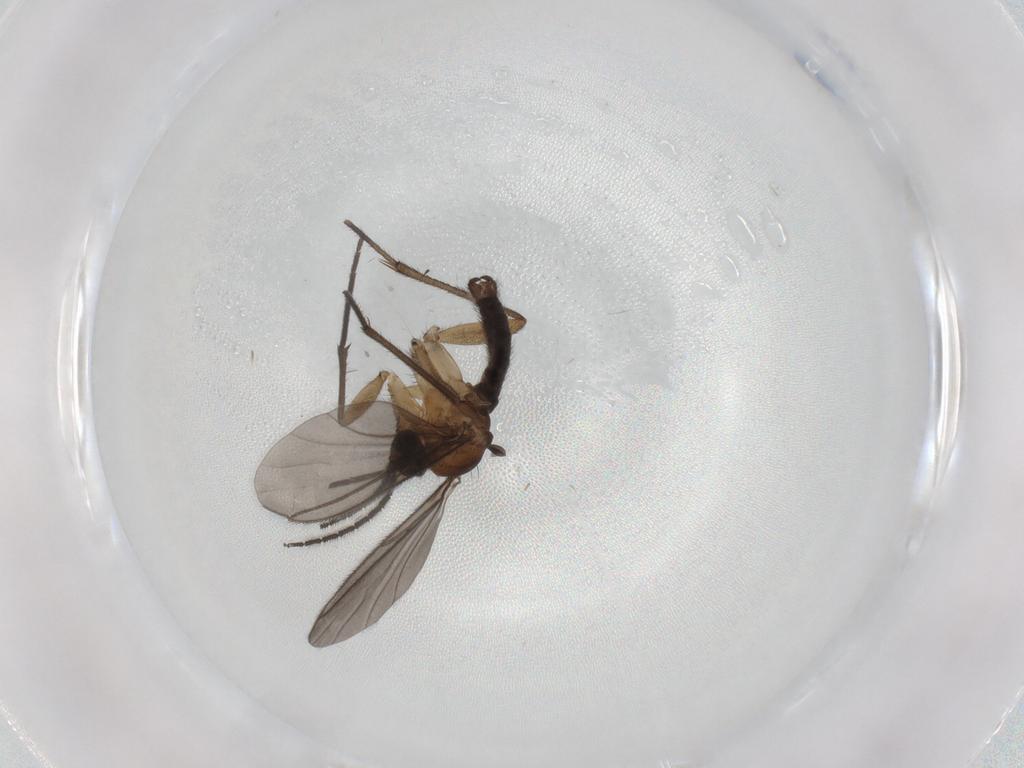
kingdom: Animalia
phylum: Arthropoda
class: Insecta
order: Diptera
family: Sciaridae
